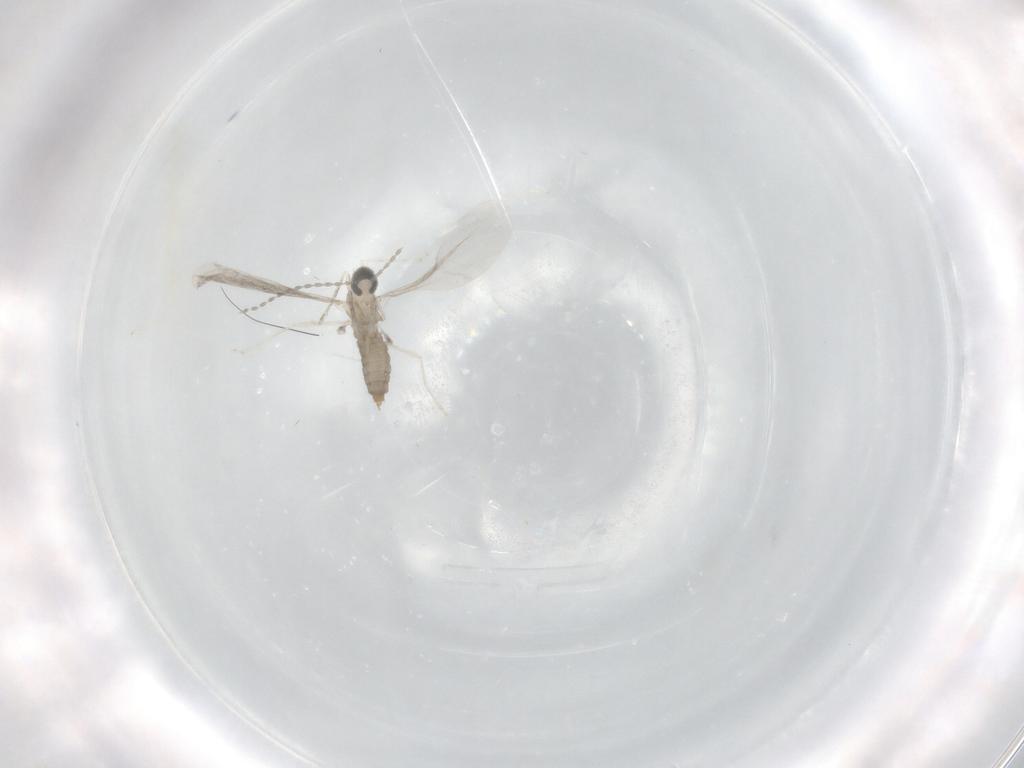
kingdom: Animalia
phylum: Arthropoda
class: Insecta
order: Diptera
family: Cecidomyiidae
